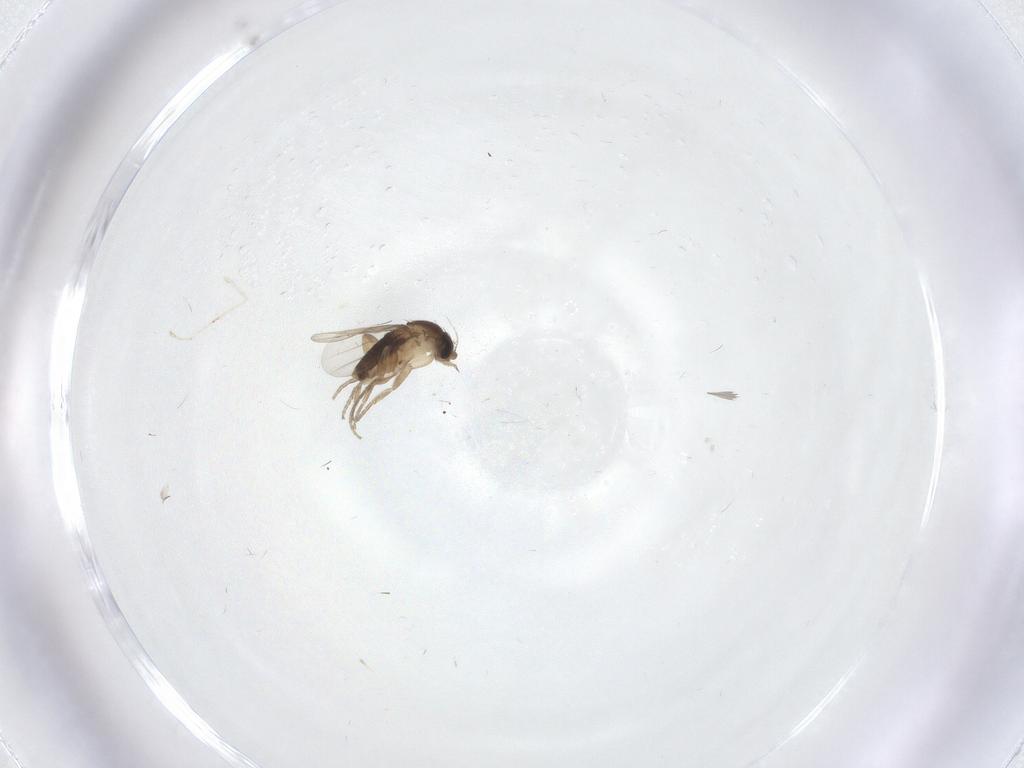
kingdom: Animalia
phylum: Arthropoda
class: Insecta
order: Diptera
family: Phoridae
